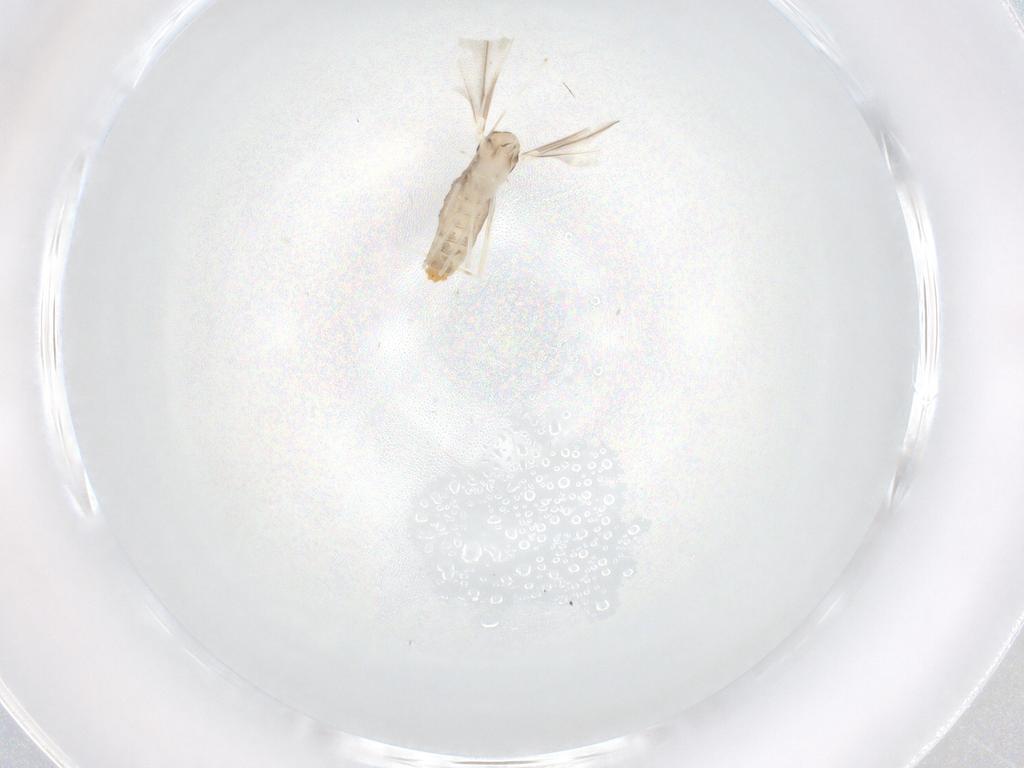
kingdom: Animalia
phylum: Arthropoda
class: Insecta
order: Diptera
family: Cecidomyiidae
